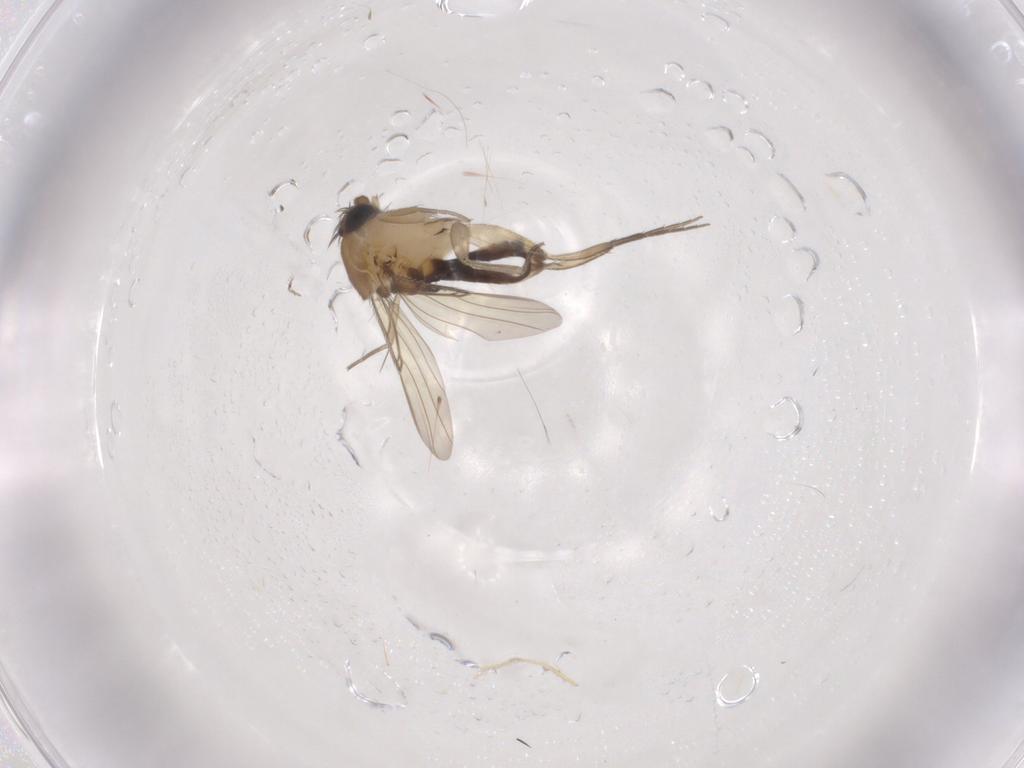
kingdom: Animalia
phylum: Arthropoda
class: Insecta
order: Diptera
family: Phoridae
